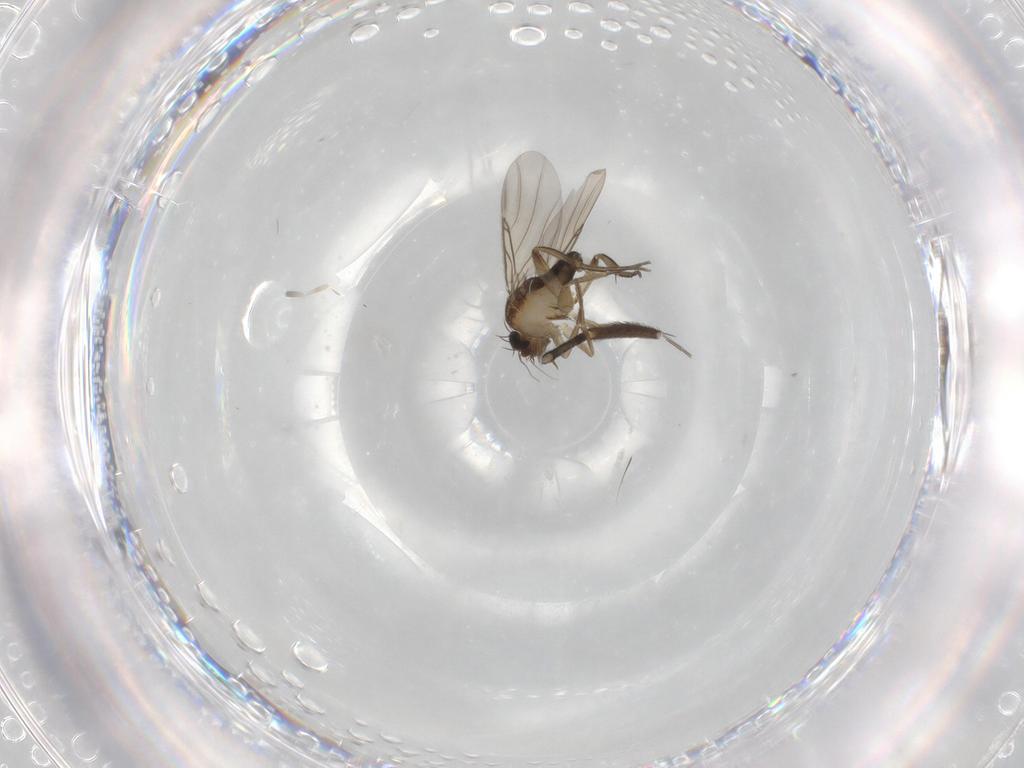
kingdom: Animalia
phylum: Arthropoda
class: Insecta
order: Diptera
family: Phoridae
